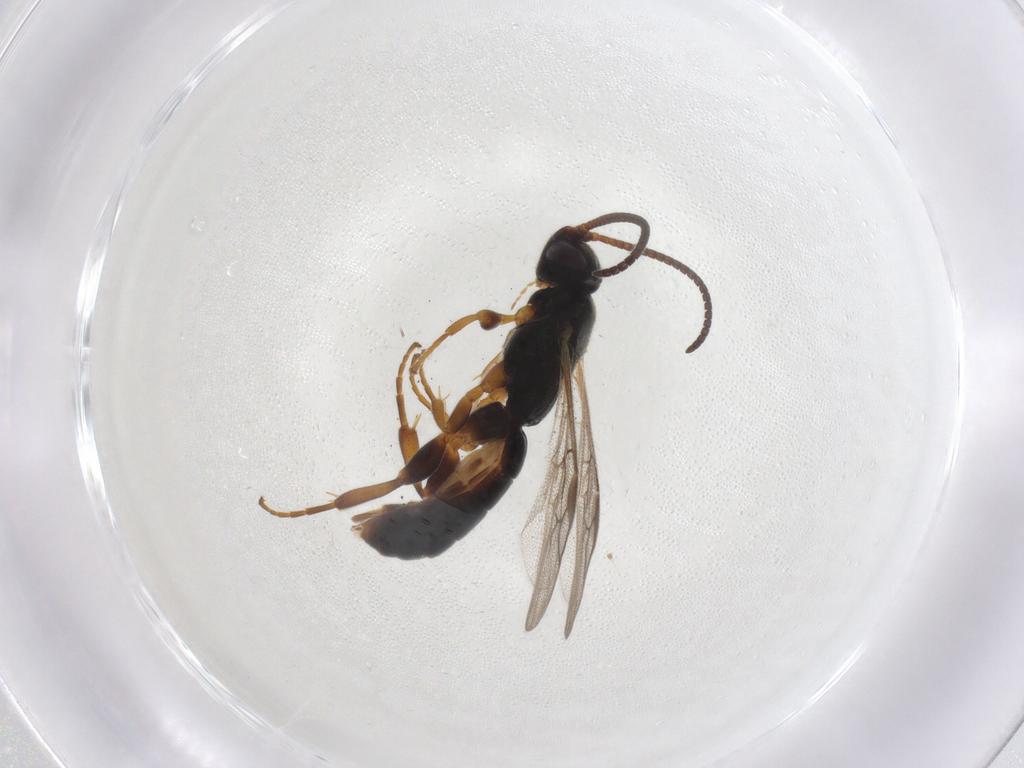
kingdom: Animalia
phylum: Arthropoda
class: Insecta
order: Hymenoptera
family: Ichneumonidae
